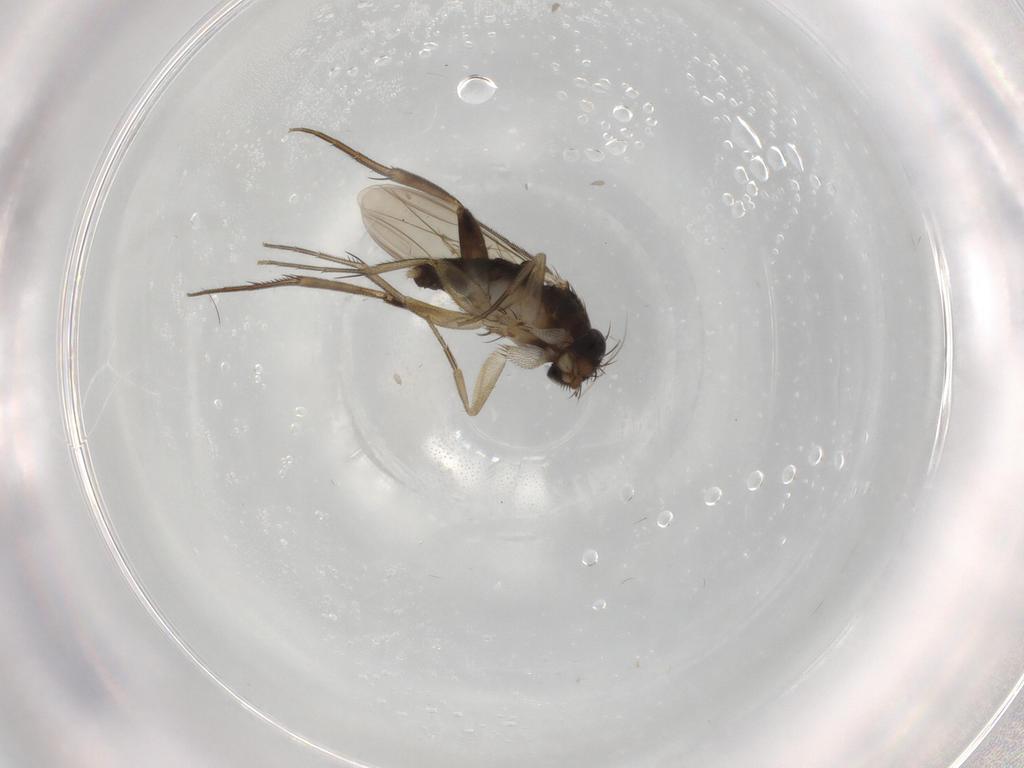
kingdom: Animalia
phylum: Arthropoda
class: Insecta
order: Diptera
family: Phoridae
